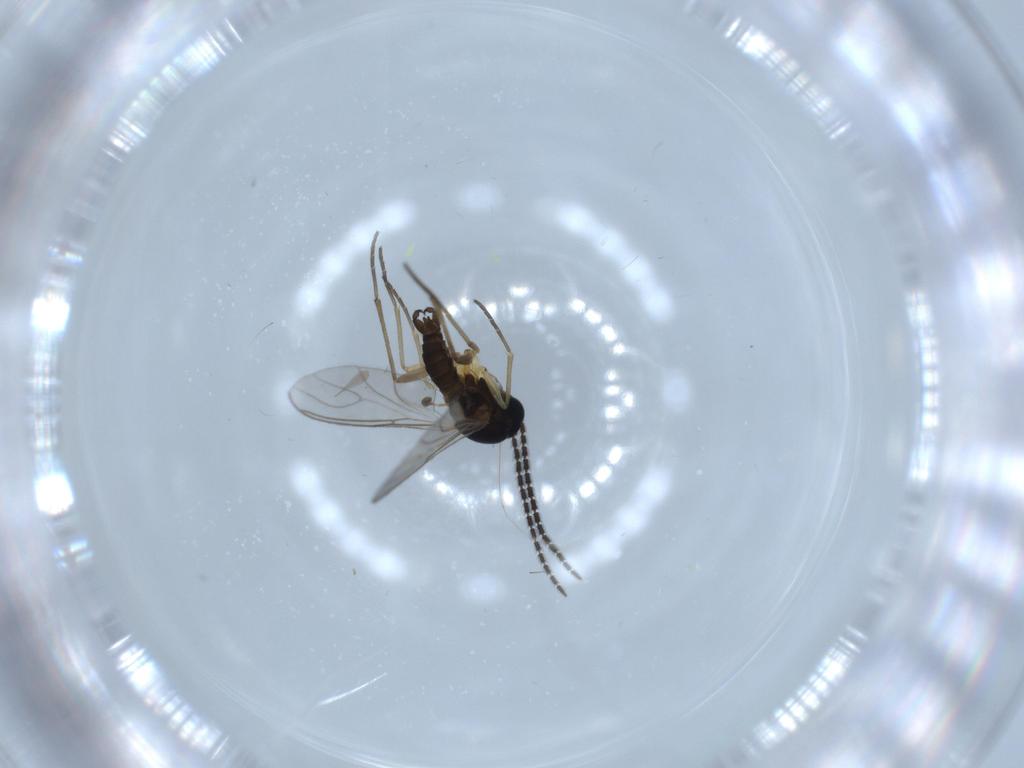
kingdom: Animalia
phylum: Arthropoda
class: Insecta
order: Diptera
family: Sciaridae
